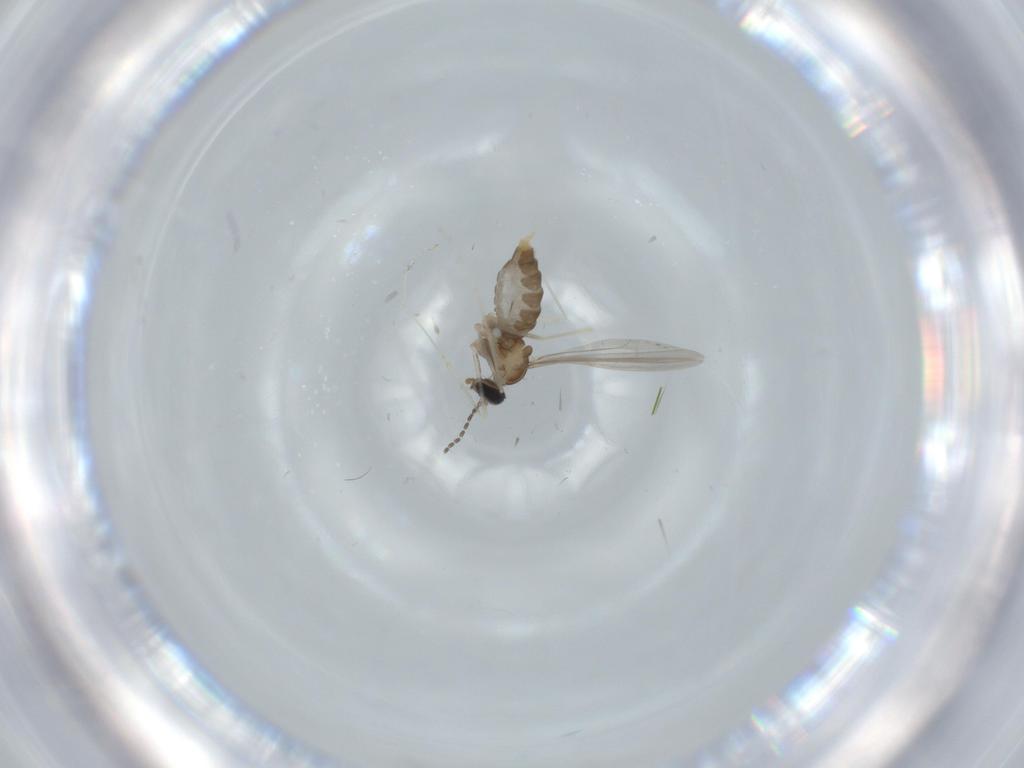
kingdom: Animalia
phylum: Arthropoda
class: Insecta
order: Diptera
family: Cecidomyiidae
